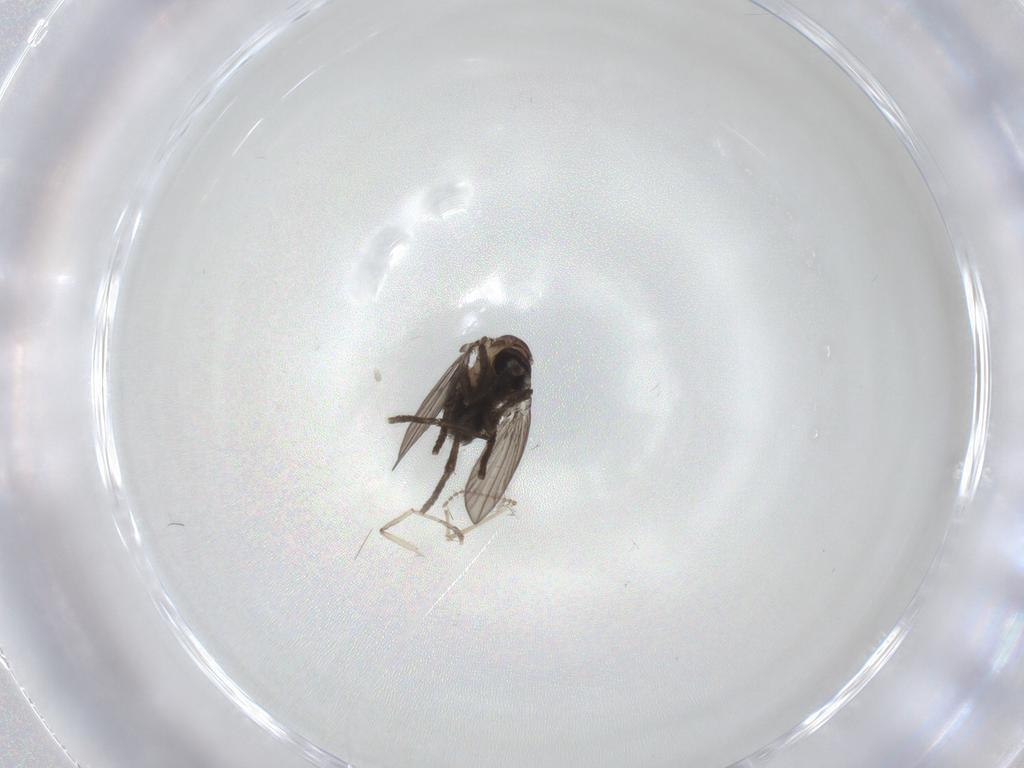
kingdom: Animalia
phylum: Arthropoda
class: Insecta
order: Diptera
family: Psychodidae
